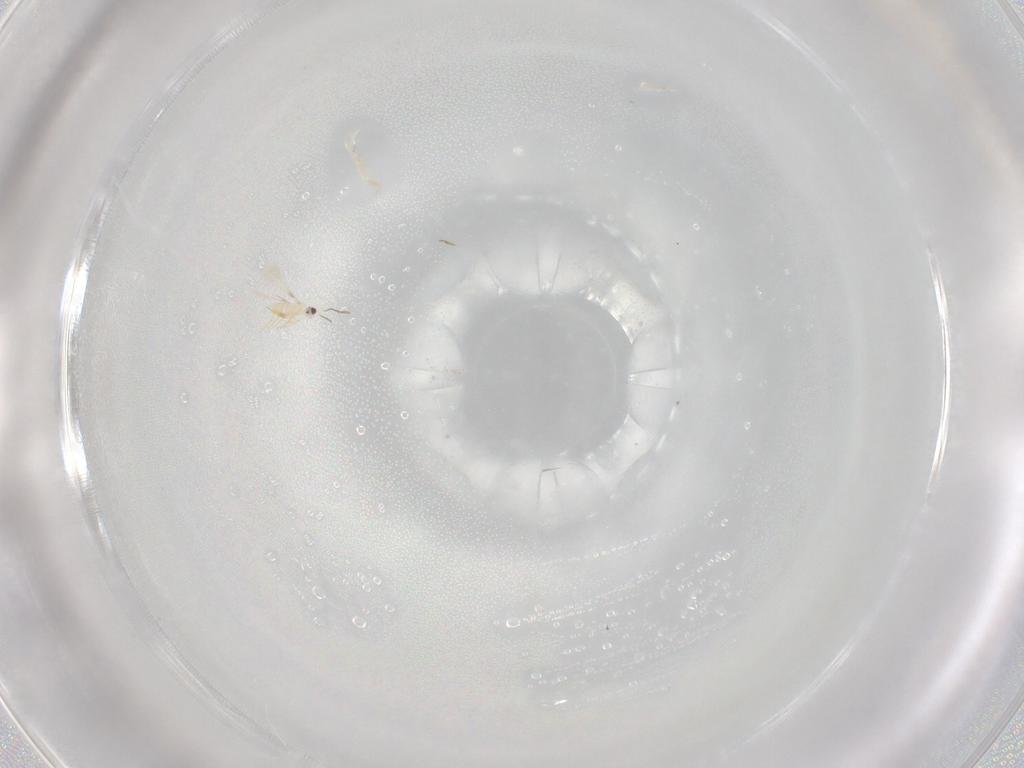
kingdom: Animalia
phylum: Arthropoda
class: Insecta
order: Hymenoptera
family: Mymaridae
